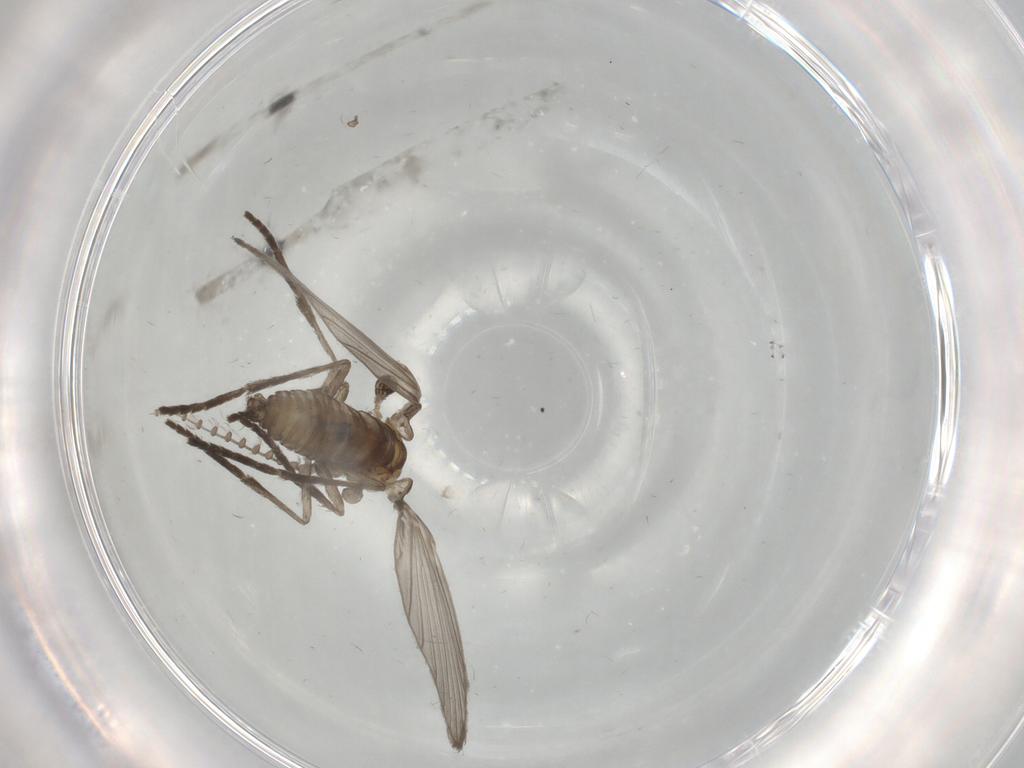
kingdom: Animalia
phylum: Arthropoda
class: Insecta
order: Diptera
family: Psychodidae
